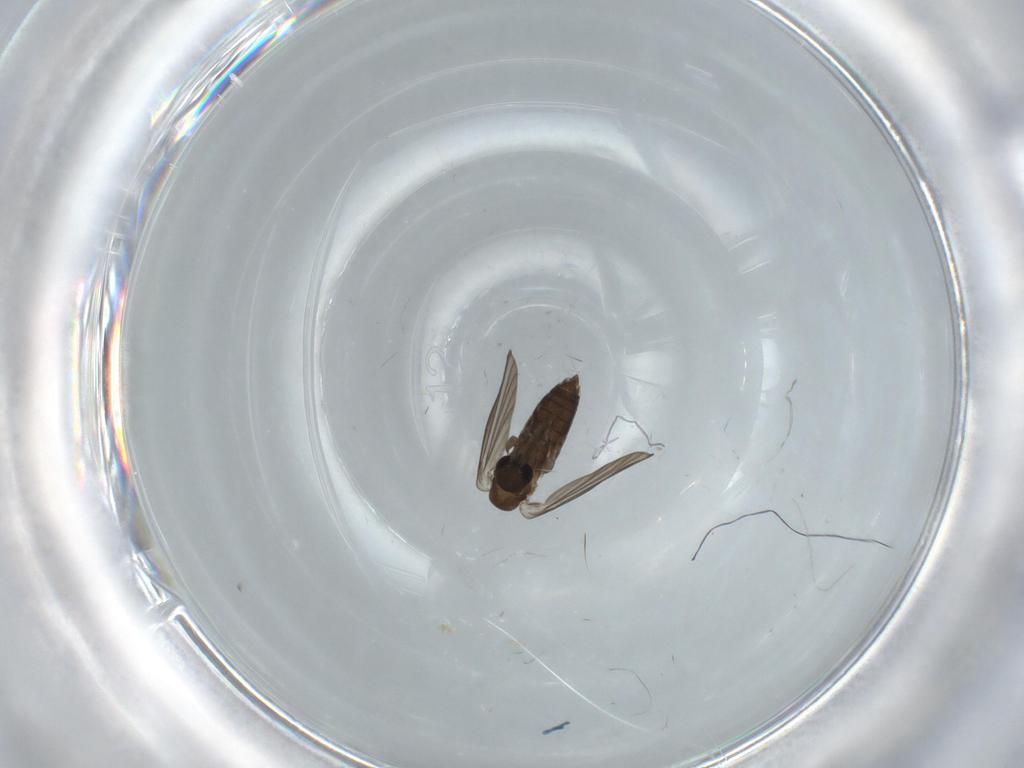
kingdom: Animalia
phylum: Arthropoda
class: Insecta
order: Diptera
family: Hybotidae
